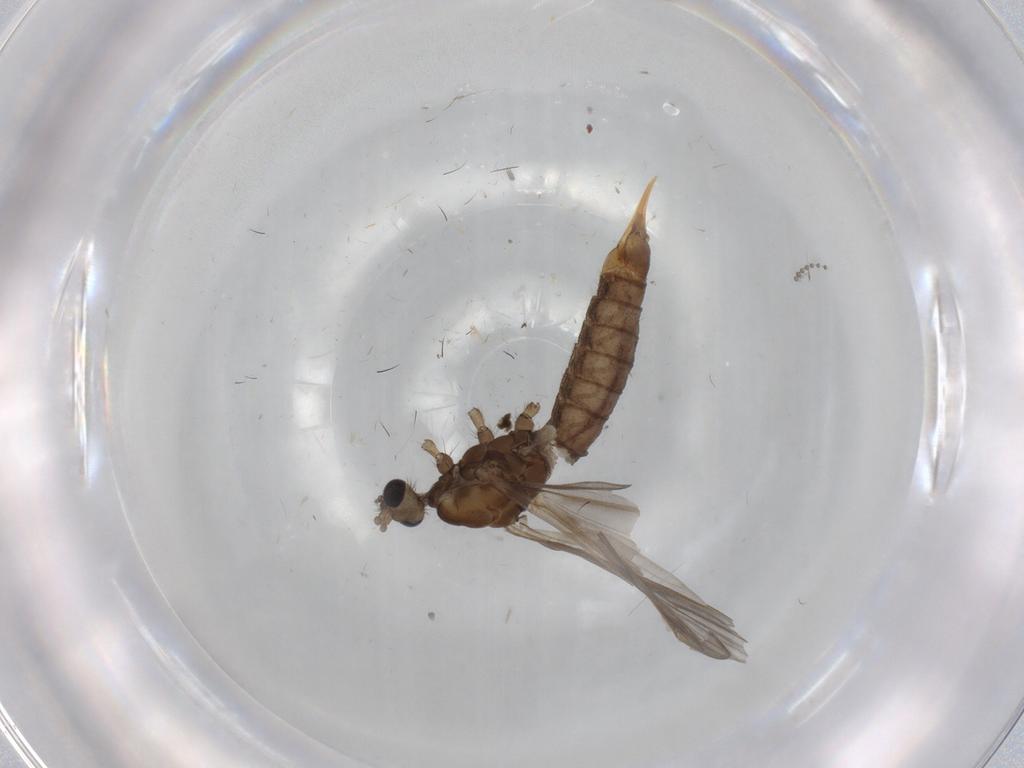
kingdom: Animalia
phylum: Arthropoda
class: Insecta
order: Diptera
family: Limoniidae
